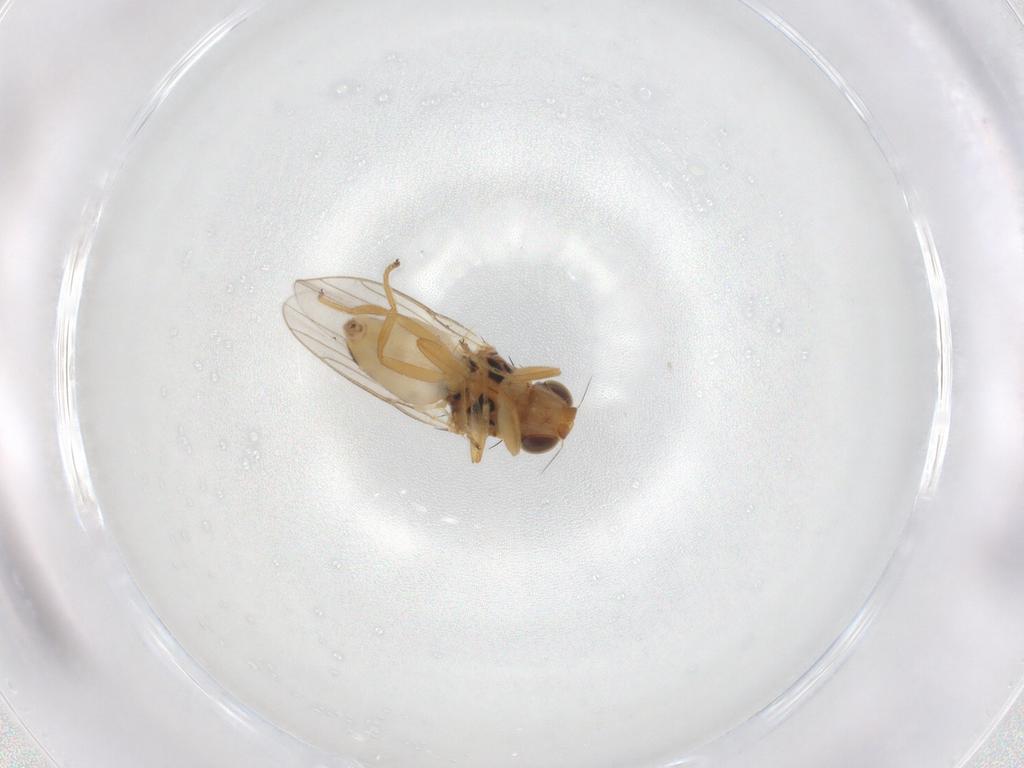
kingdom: Animalia
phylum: Arthropoda
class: Insecta
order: Diptera
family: Chloropidae
